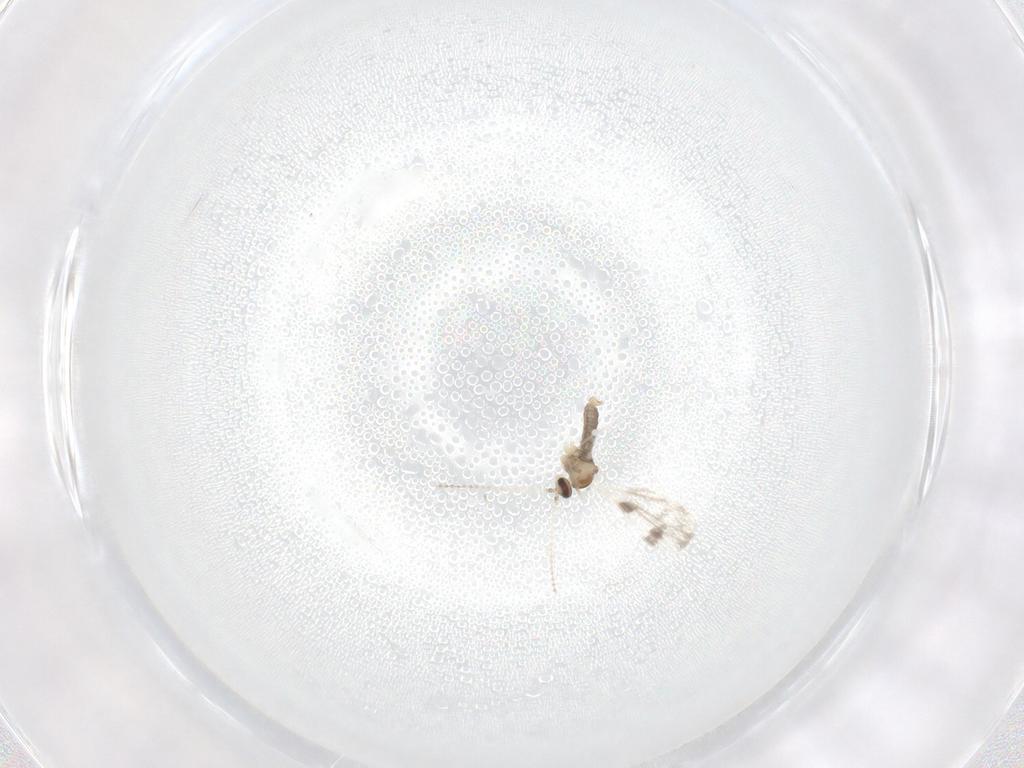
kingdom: Animalia
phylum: Arthropoda
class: Insecta
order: Diptera
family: Cecidomyiidae
